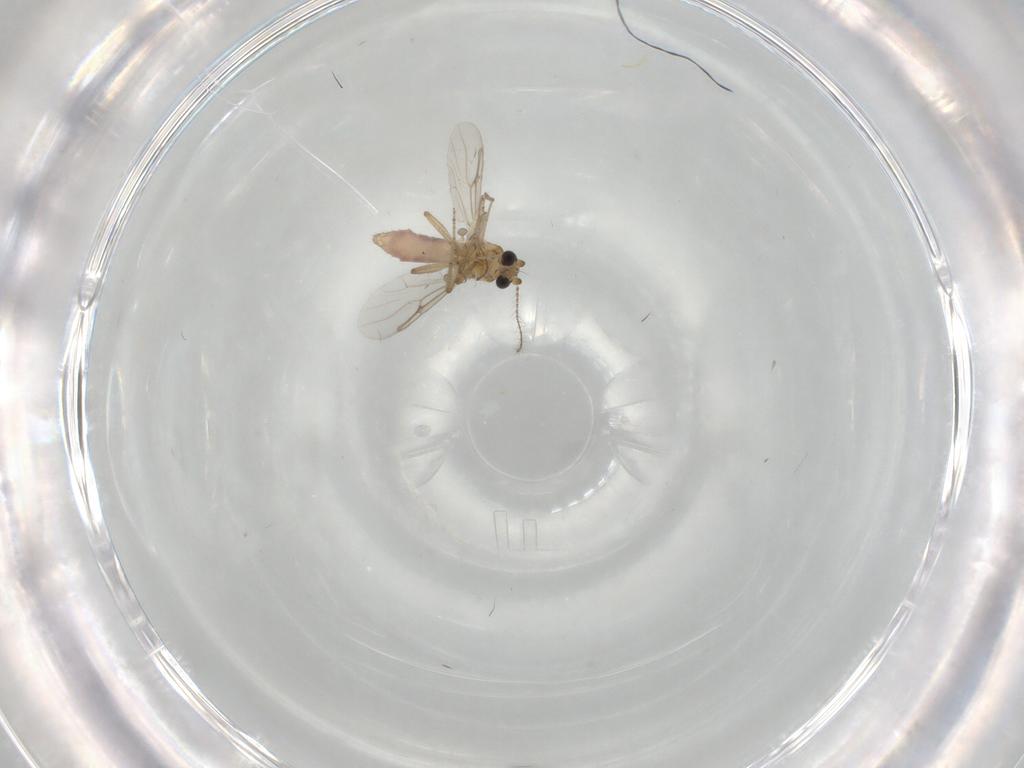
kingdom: Animalia
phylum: Arthropoda
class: Insecta
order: Diptera
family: Ceratopogonidae
